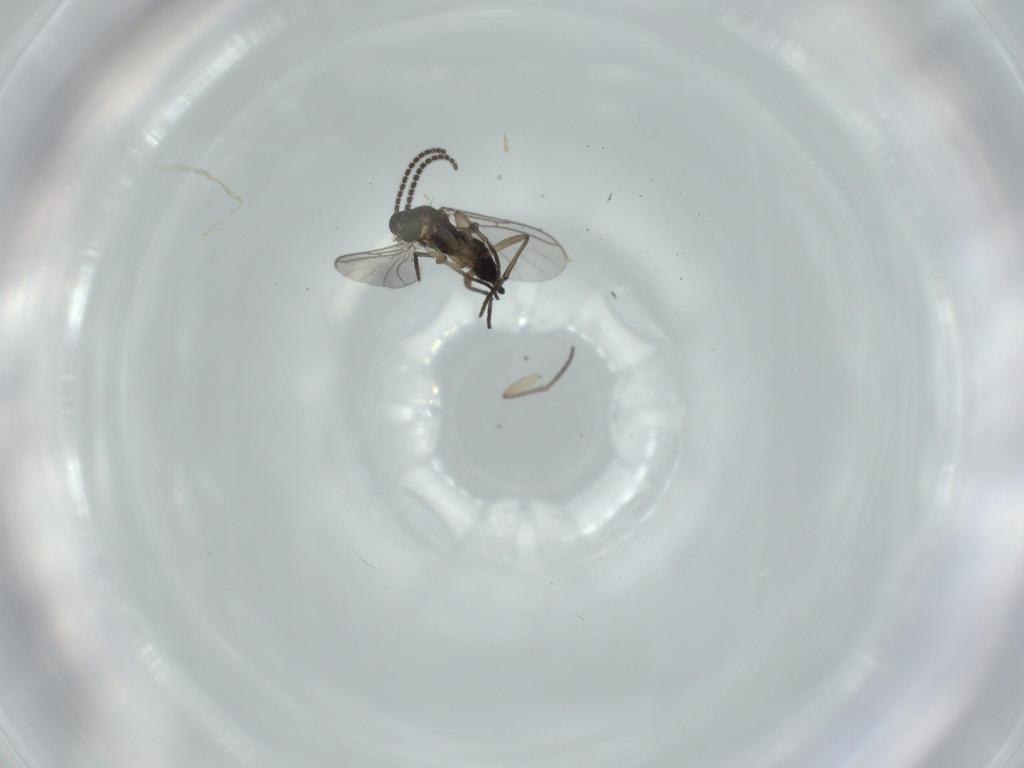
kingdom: Animalia
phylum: Arthropoda
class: Insecta
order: Diptera
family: Sciaridae
